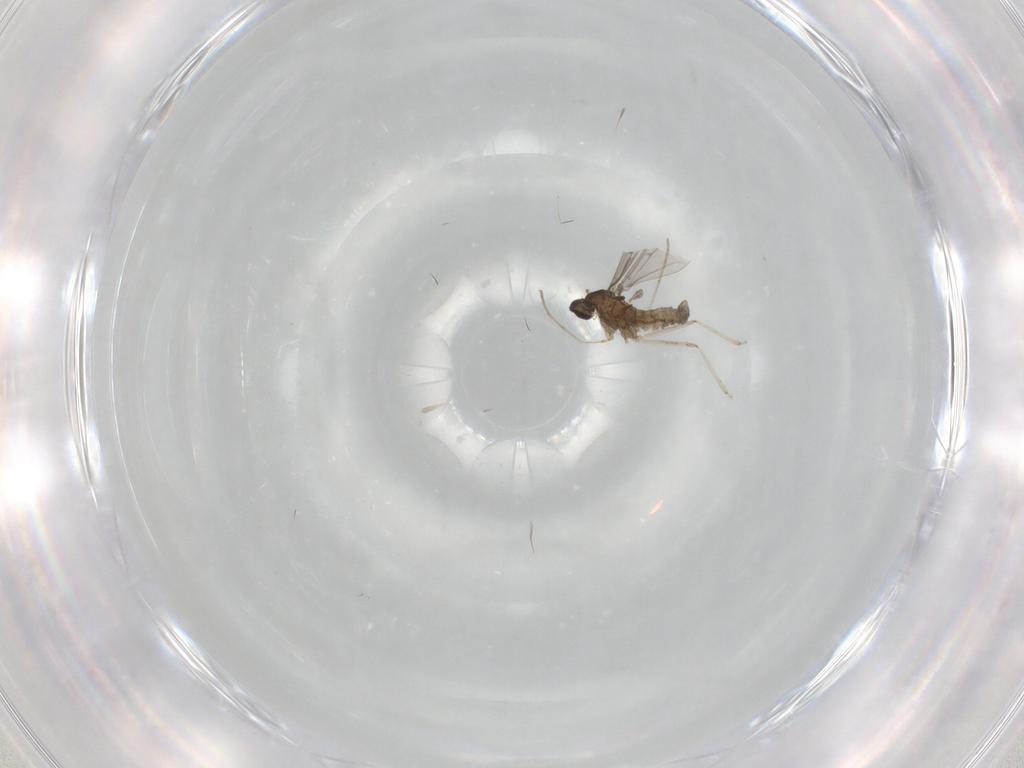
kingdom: Animalia
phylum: Arthropoda
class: Insecta
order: Diptera
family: Cecidomyiidae
